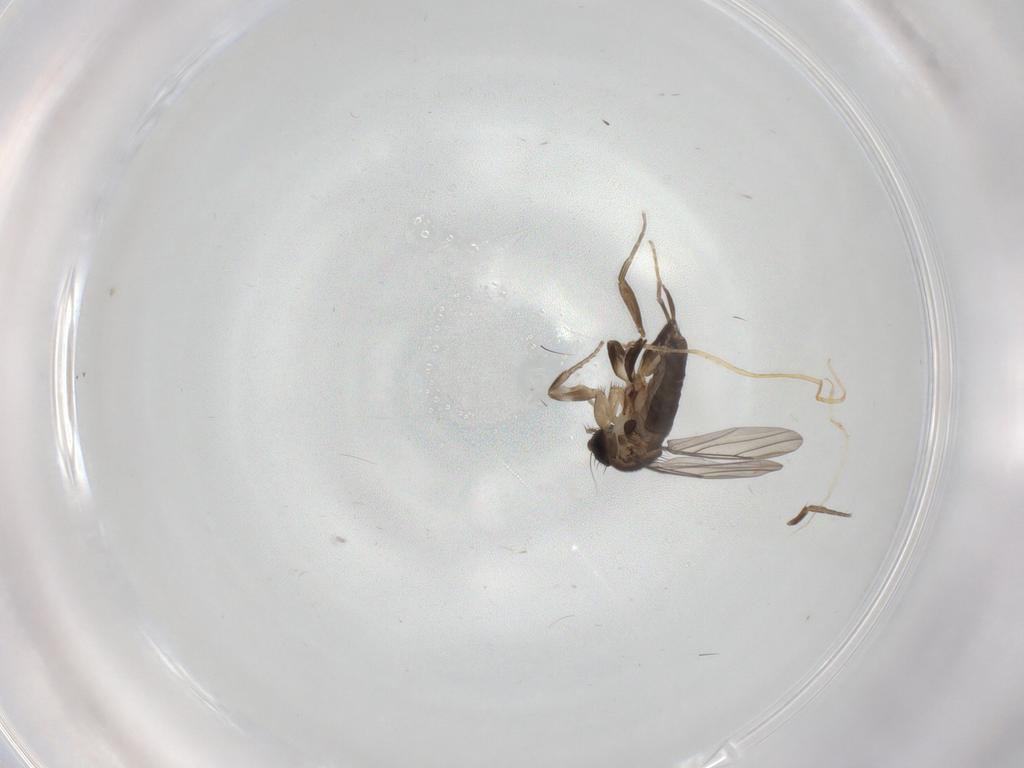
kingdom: Animalia
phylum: Arthropoda
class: Insecta
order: Diptera
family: Phoridae
